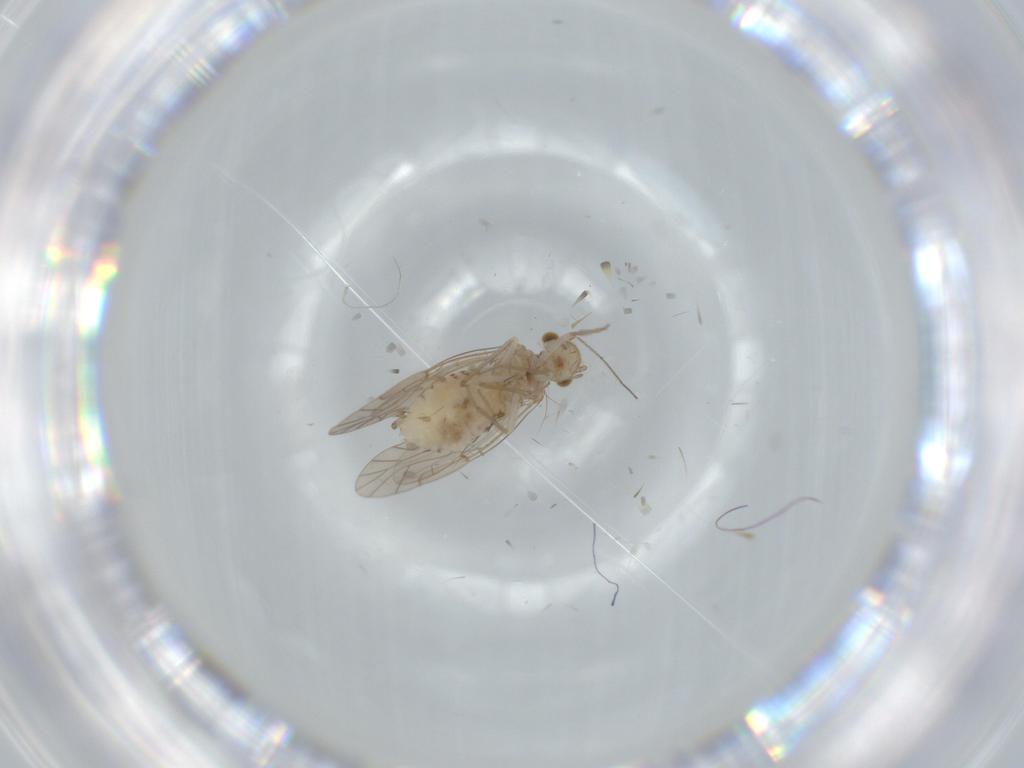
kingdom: Animalia
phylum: Arthropoda
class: Insecta
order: Psocodea
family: Lachesillidae
